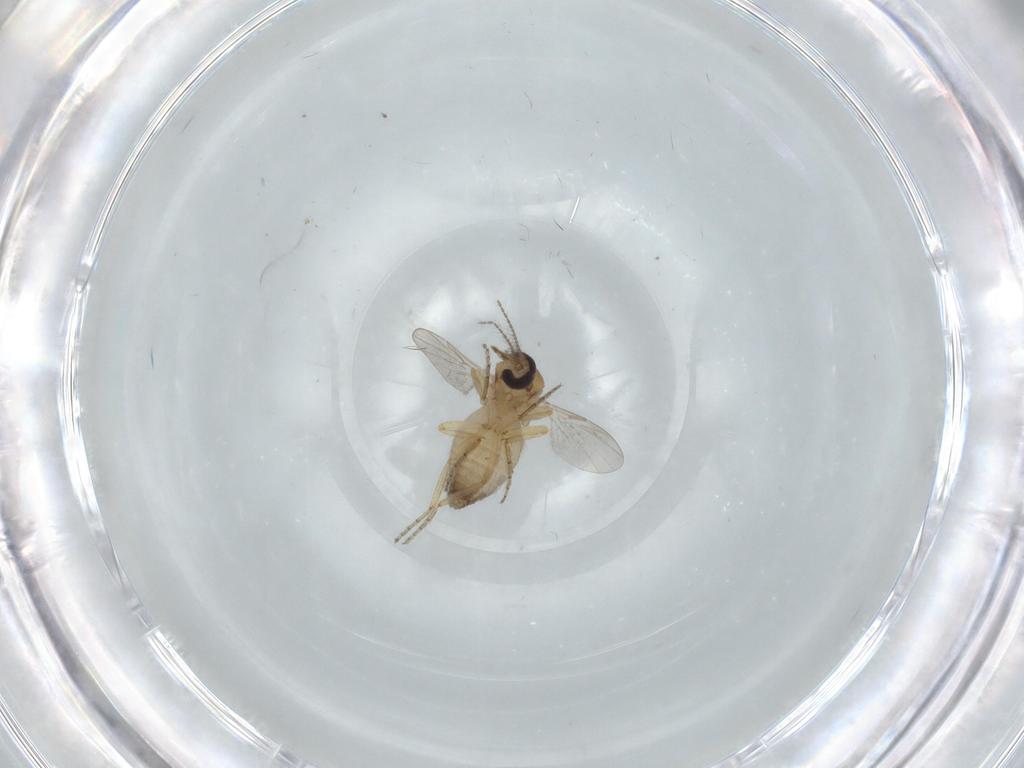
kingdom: Animalia
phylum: Arthropoda
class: Insecta
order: Diptera
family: Ceratopogonidae
